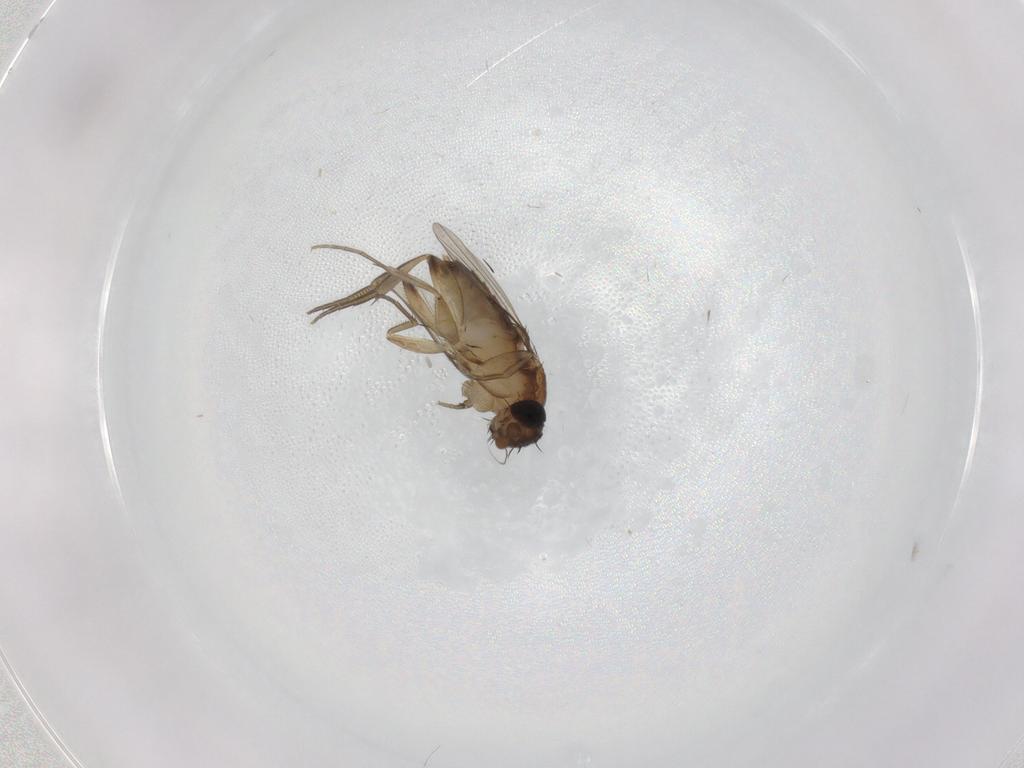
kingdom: Animalia
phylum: Arthropoda
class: Insecta
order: Diptera
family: Phoridae
